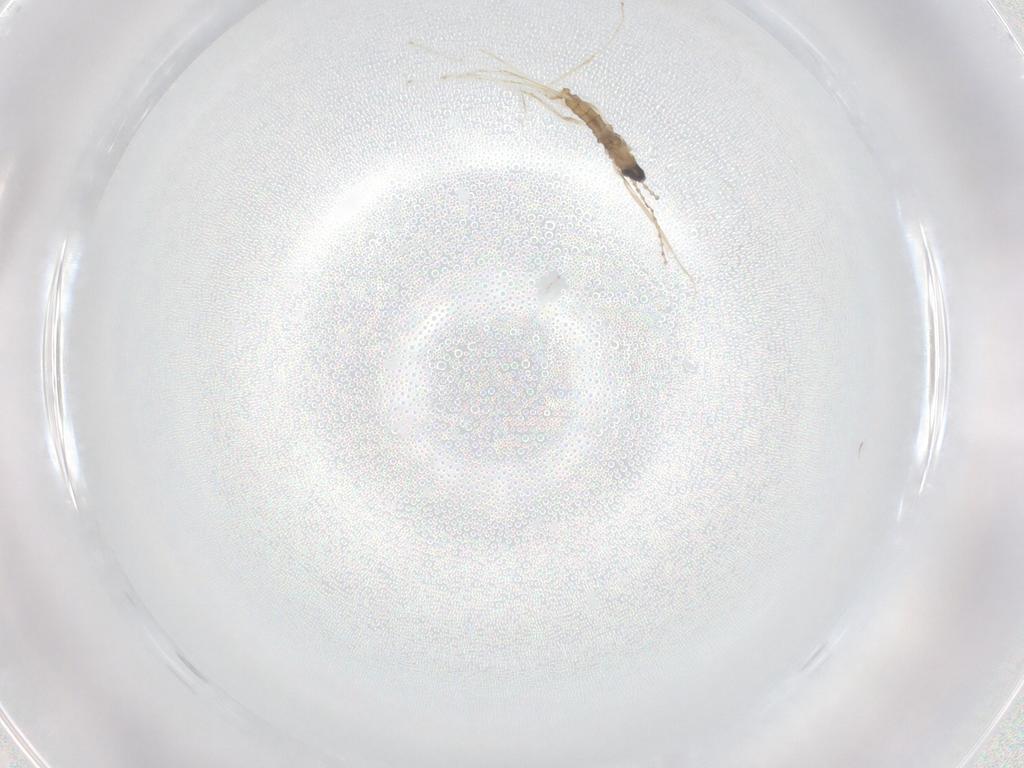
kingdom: Animalia
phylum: Arthropoda
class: Insecta
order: Diptera
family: Cecidomyiidae
